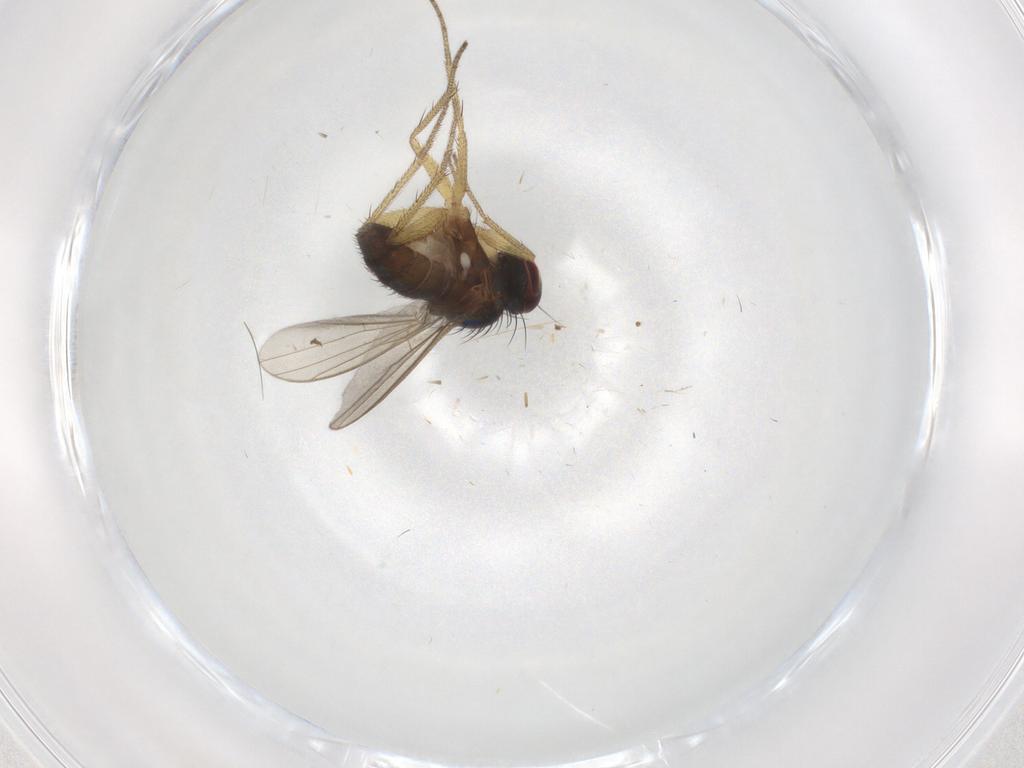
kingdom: Animalia
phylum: Arthropoda
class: Insecta
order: Diptera
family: Dolichopodidae
